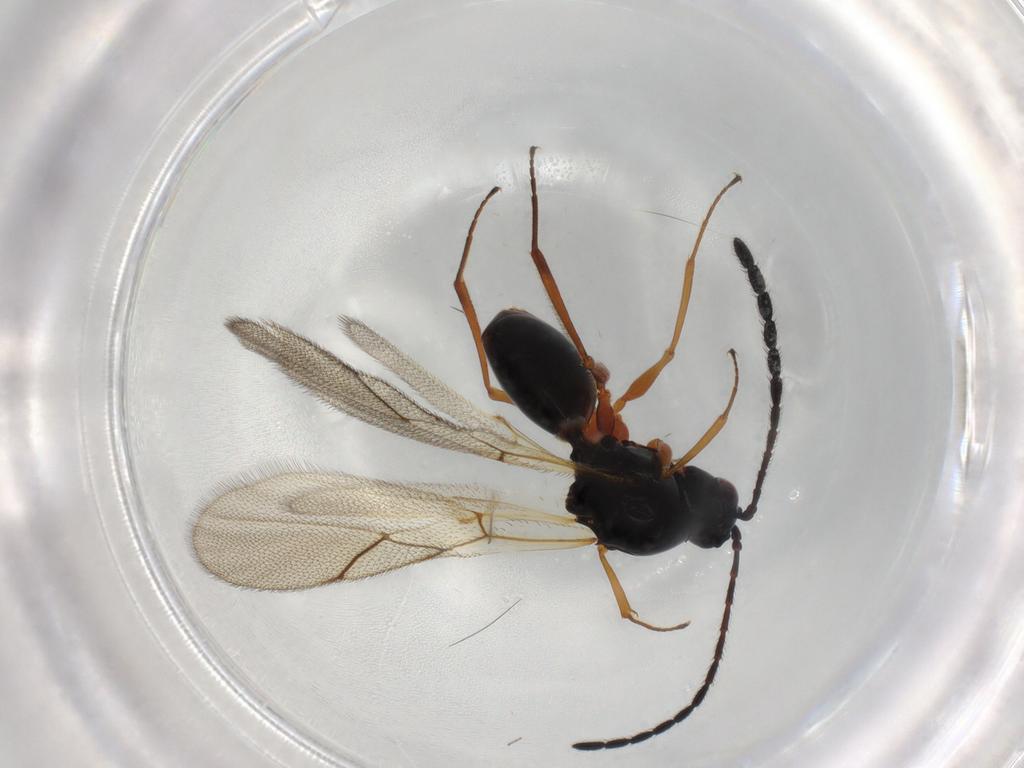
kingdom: Animalia
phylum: Arthropoda
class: Insecta
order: Hymenoptera
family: Figitidae
